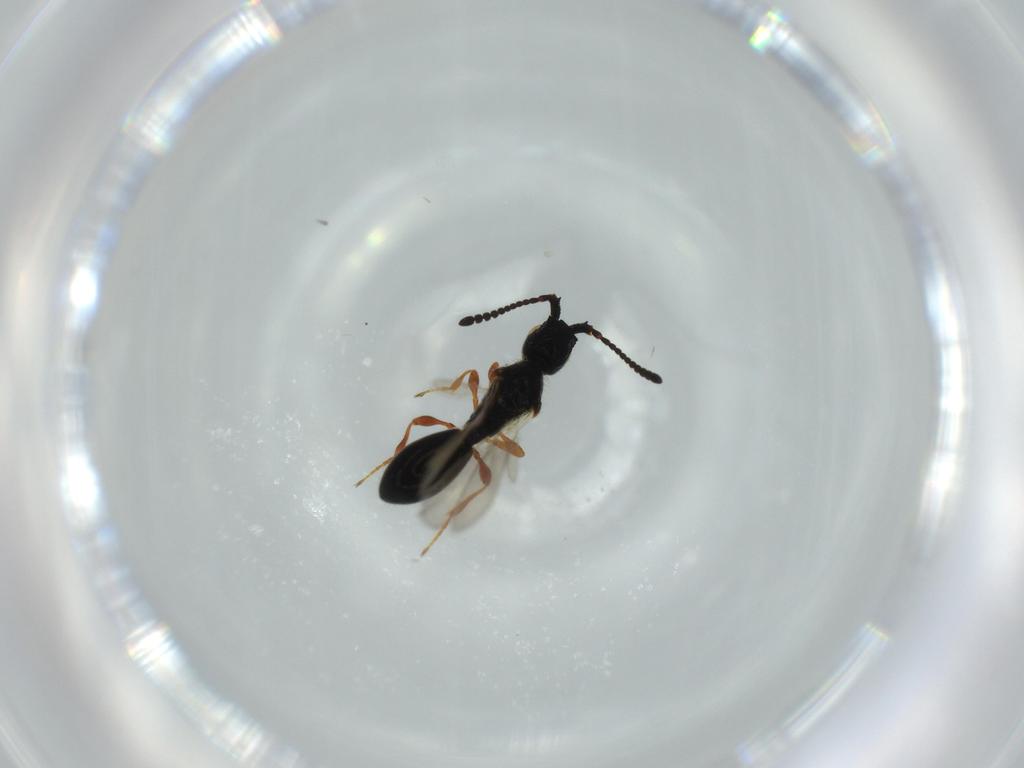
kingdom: Animalia
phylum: Arthropoda
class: Insecta
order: Hymenoptera
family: Diapriidae
